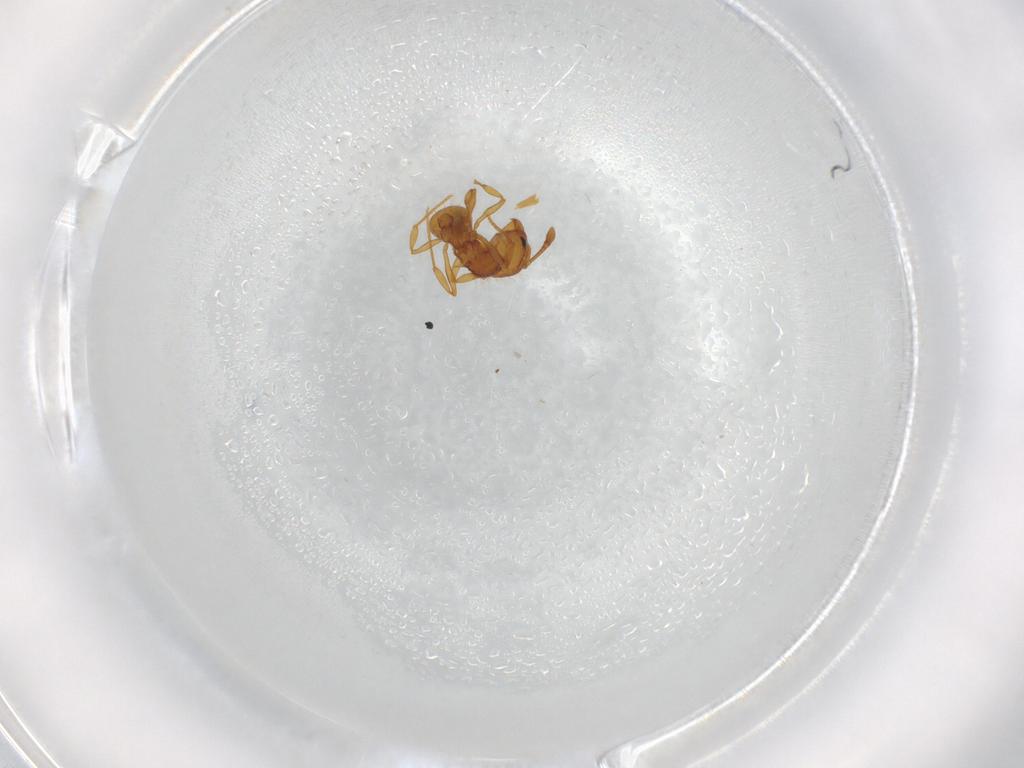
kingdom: Animalia
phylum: Arthropoda
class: Insecta
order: Hymenoptera
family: Formicidae
